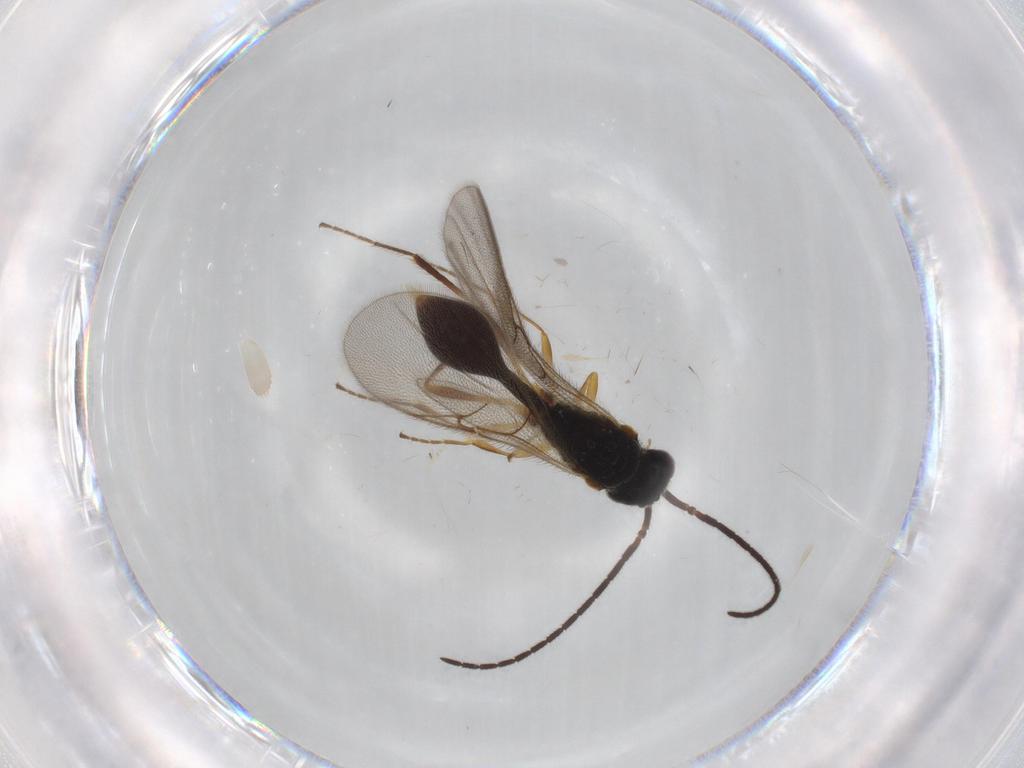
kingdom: Animalia
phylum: Arthropoda
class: Insecta
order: Hymenoptera
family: Diapriidae
